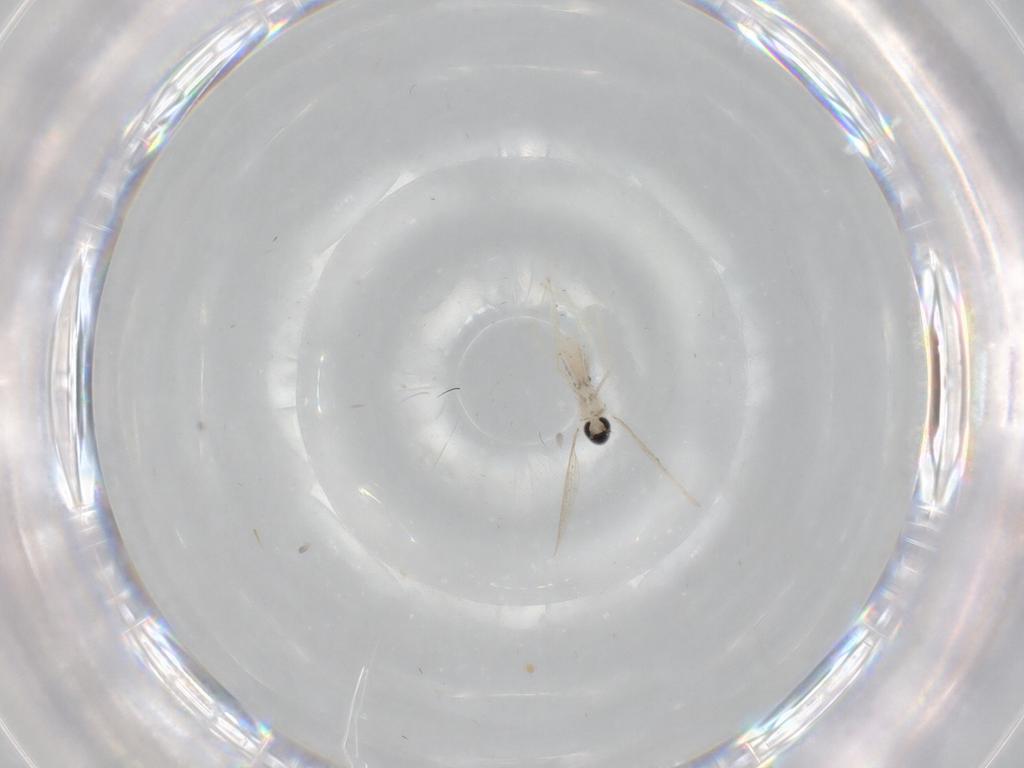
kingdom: Animalia
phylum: Arthropoda
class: Insecta
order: Diptera
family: Cecidomyiidae
